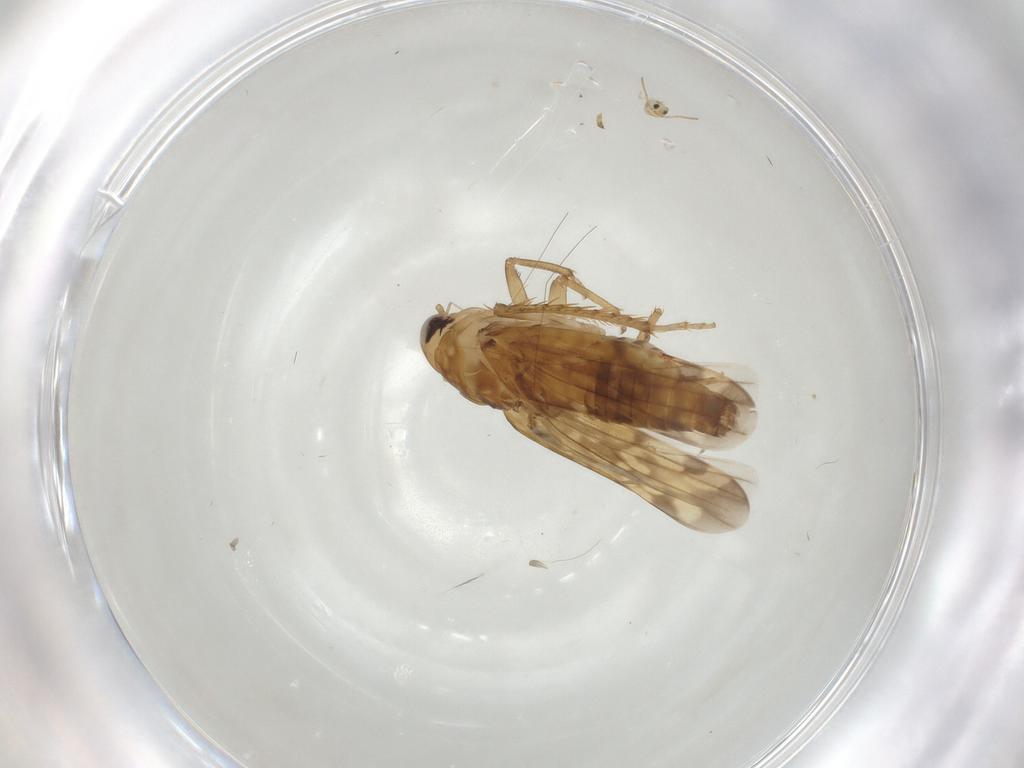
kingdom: Animalia
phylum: Arthropoda
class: Insecta
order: Hemiptera
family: Cicadellidae
